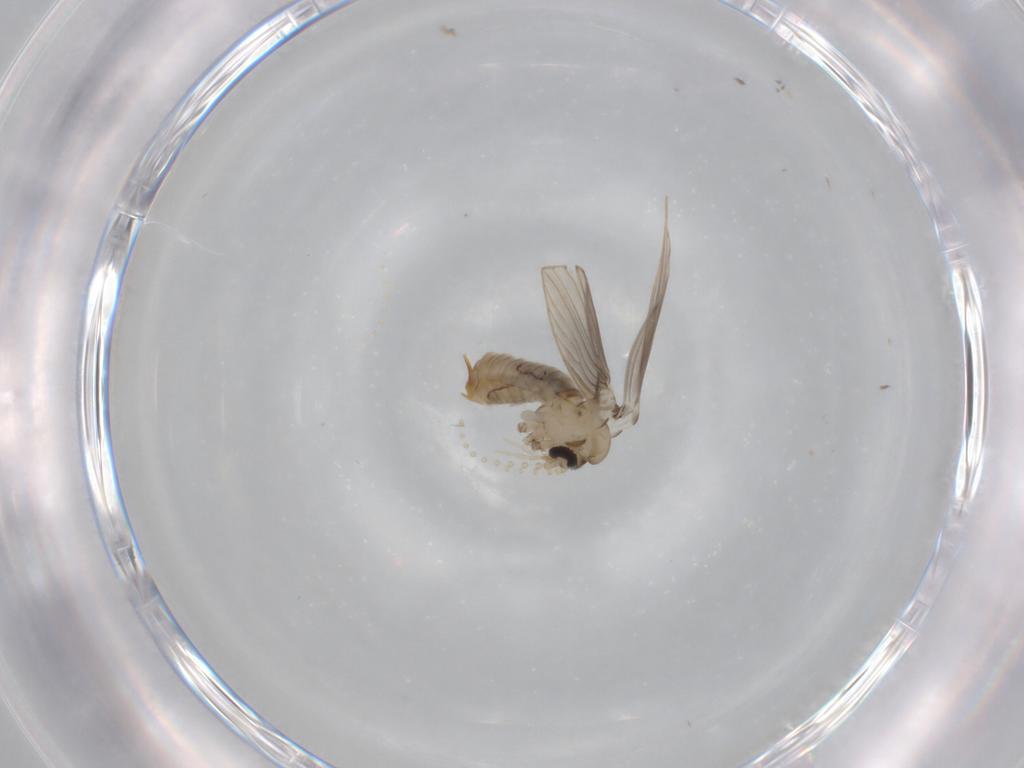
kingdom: Animalia
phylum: Arthropoda
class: Insecta
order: Diptera
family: Psychodidae
